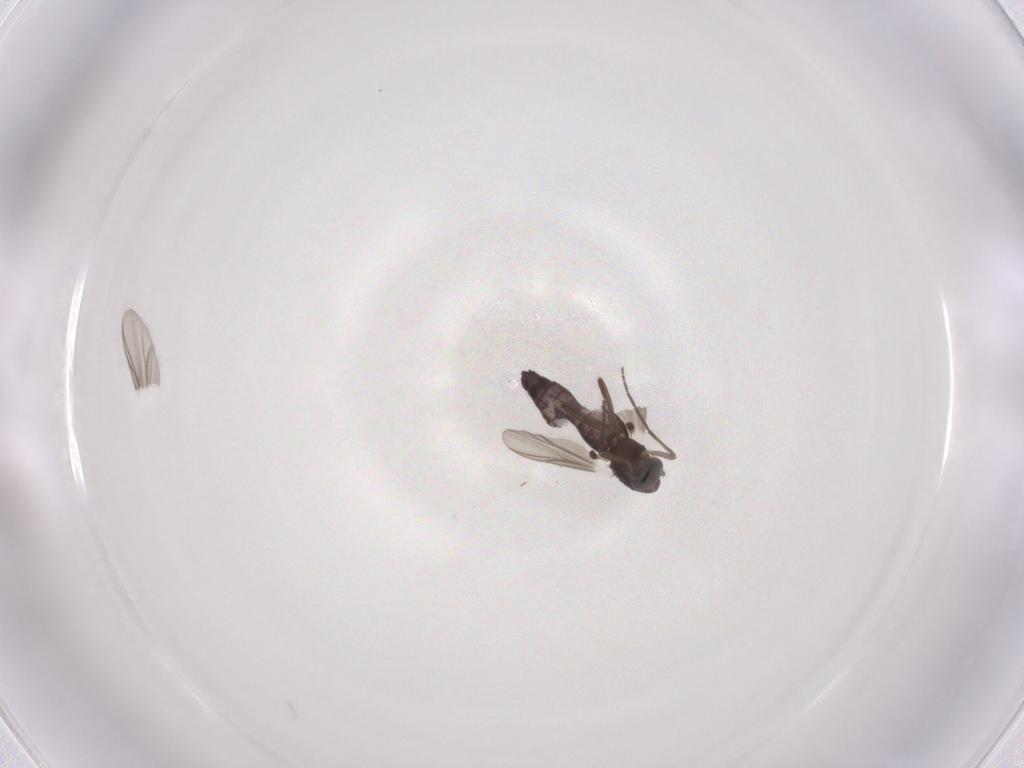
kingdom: Animalia
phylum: Arthropoda
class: Insecta
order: Diptera
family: Chironomidae
